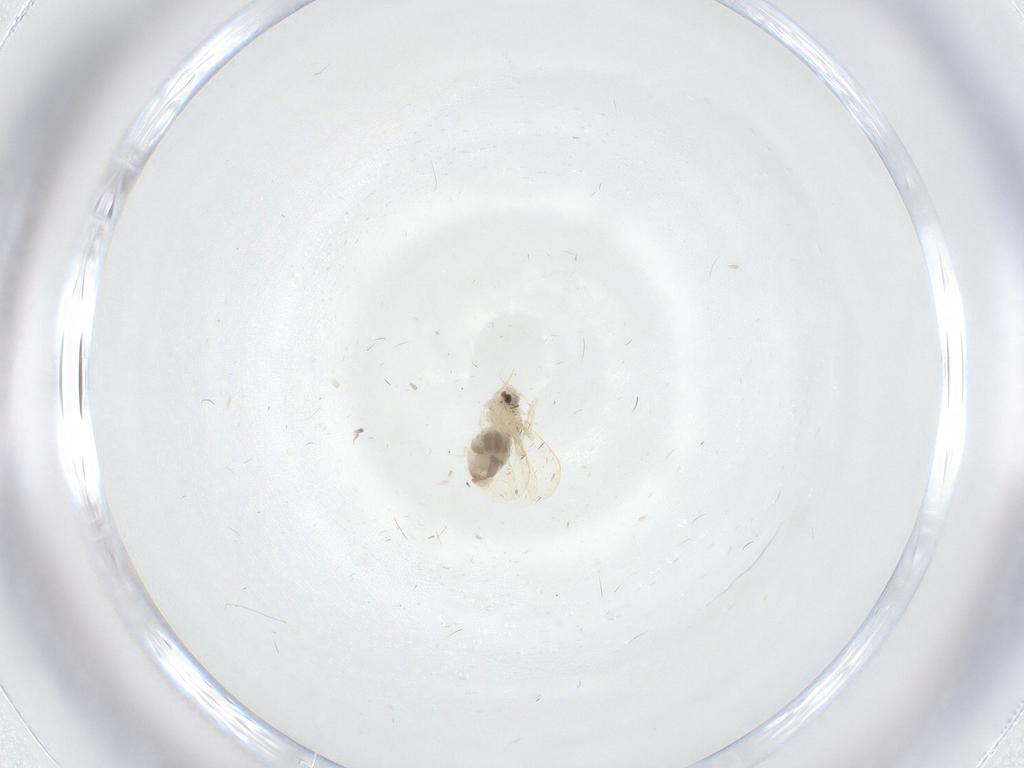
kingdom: Animalia
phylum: Arthropoda
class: Insecta
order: Hemiptera
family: Aleyrodidae
